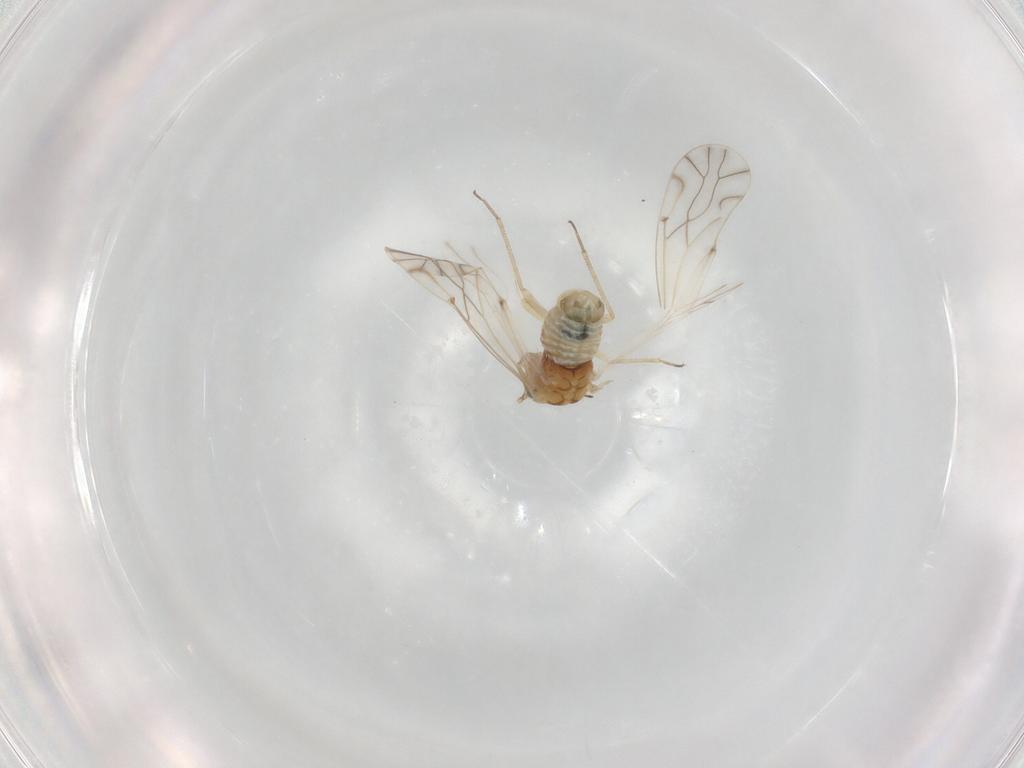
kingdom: Animalia
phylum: Arthropoda
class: Insecta
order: Psocodea
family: Lachesillidae
